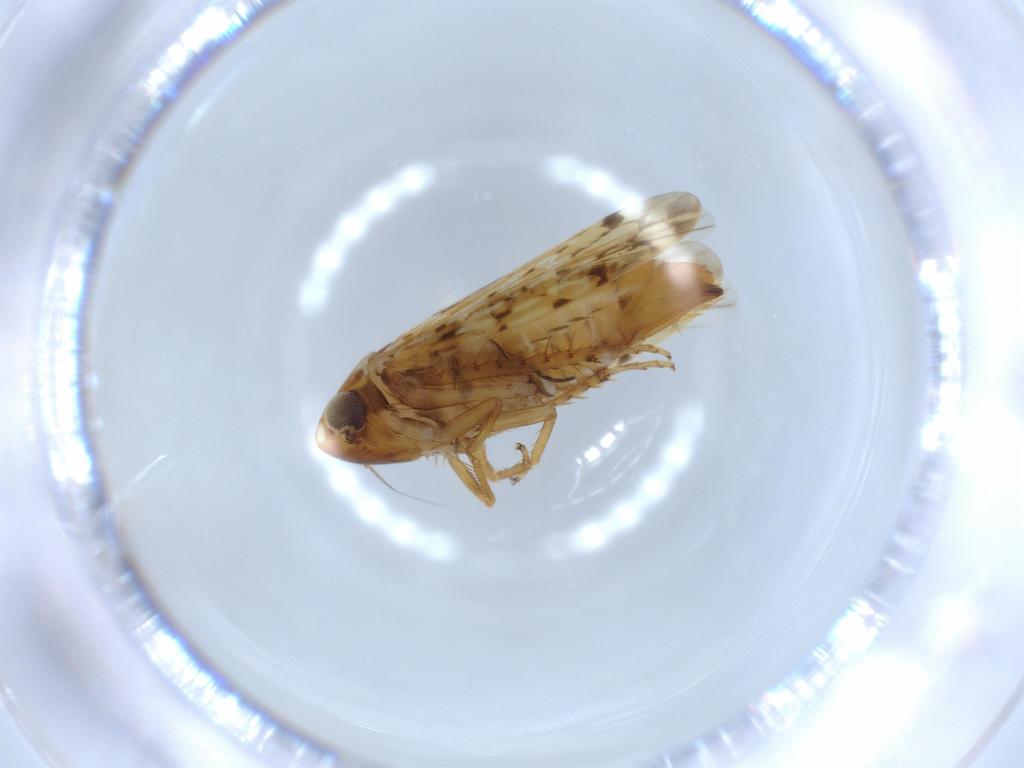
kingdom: Animalia
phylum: Arthropoda
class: Insecta
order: Hemiptera
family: Cicadellidae
